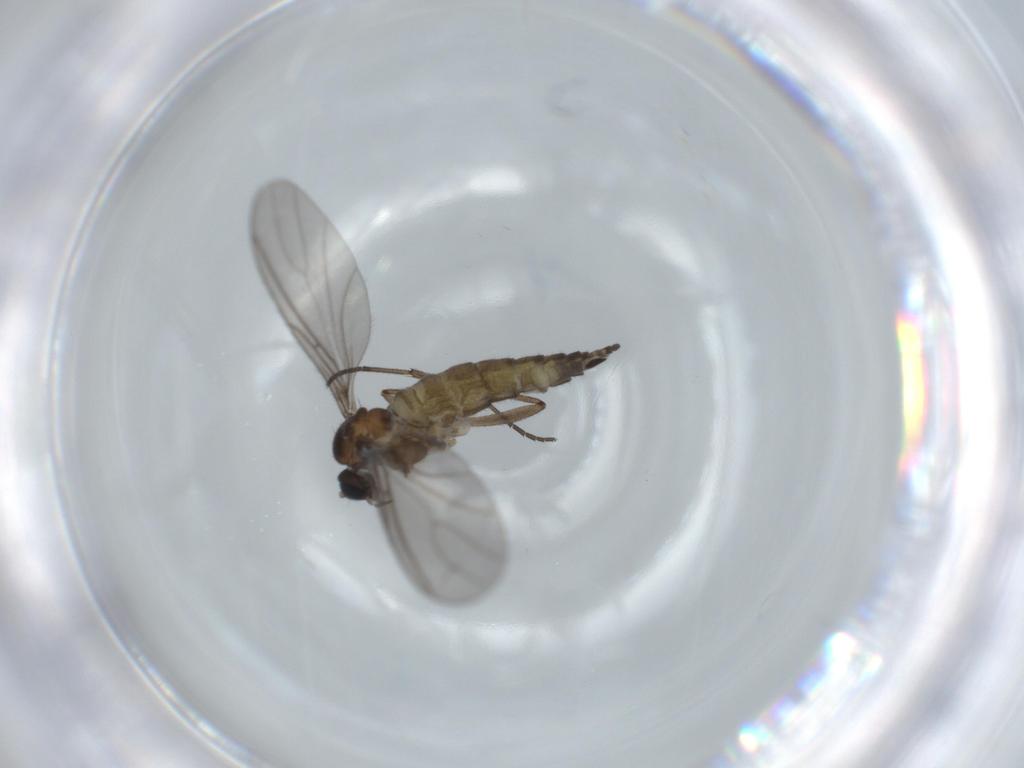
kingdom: Animalia
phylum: Arthropoda
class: Insecta
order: Diptera
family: Sciaridae
